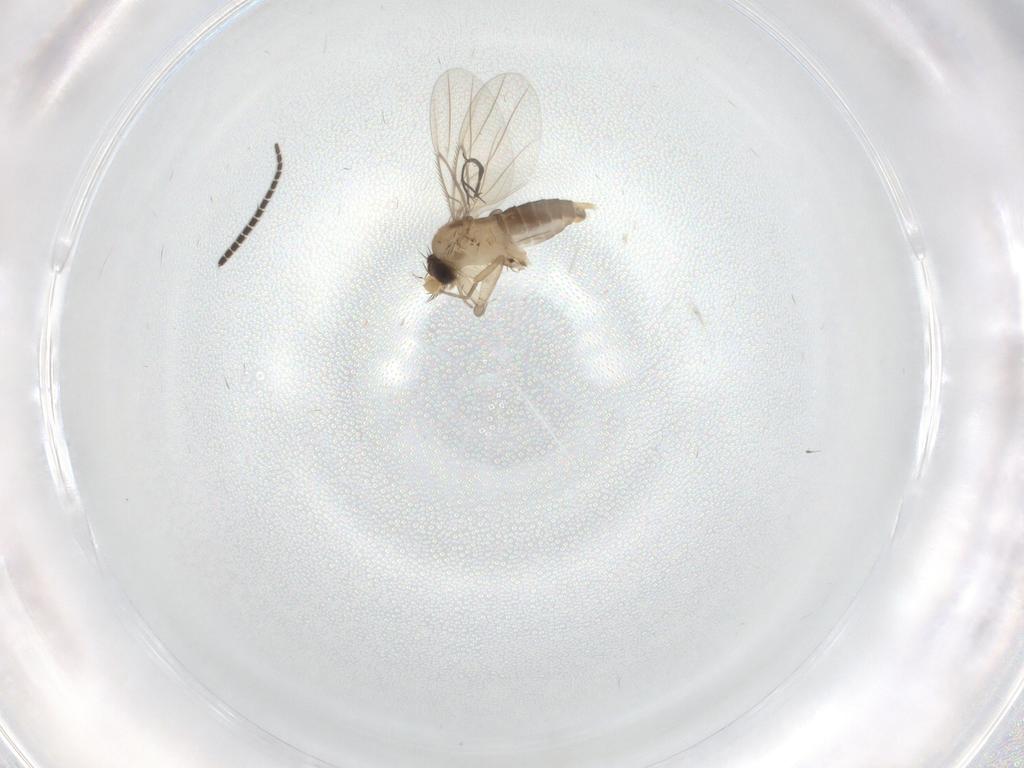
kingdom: Animalia
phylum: Arthropoda
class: Insecta
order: Diptera
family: Phoridae
